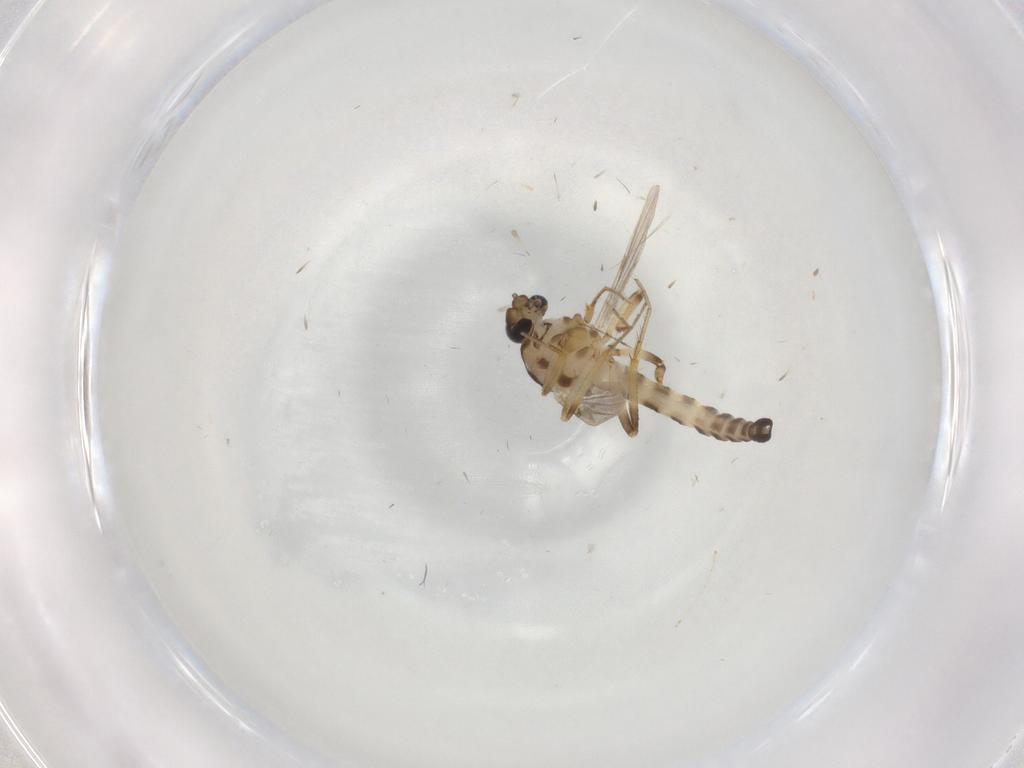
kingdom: Animalia
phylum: Arthropoda
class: Insecta
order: Diptera
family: Ceratopogonidae
